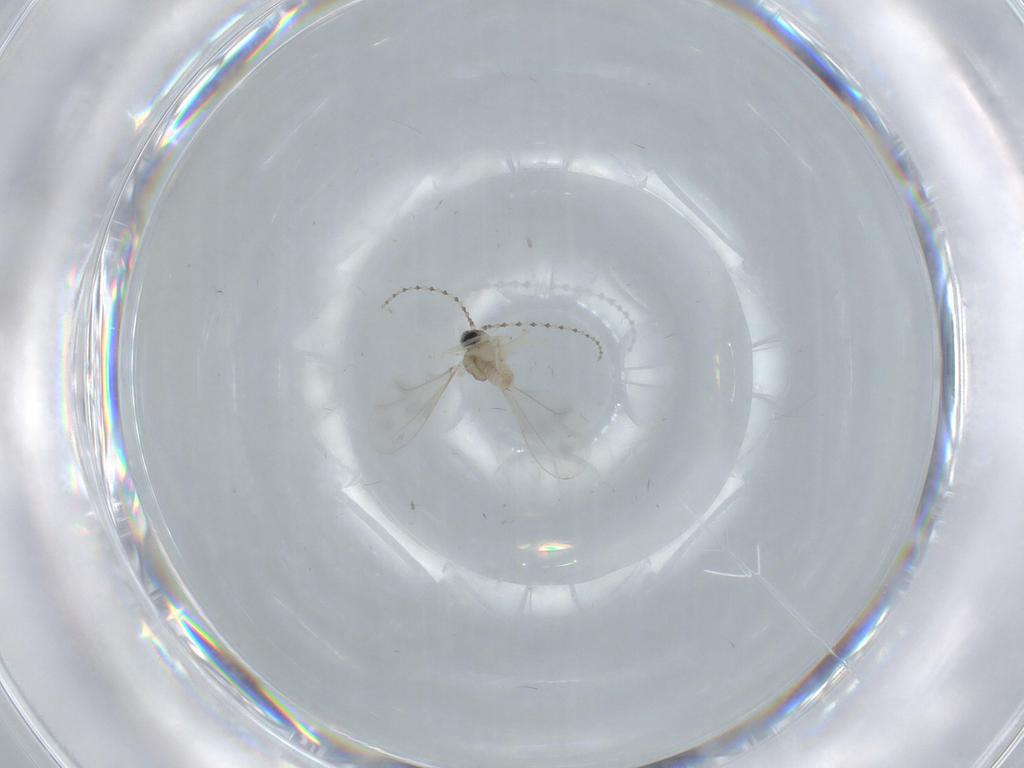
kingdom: Animalia
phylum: Arthropoda
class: Insecta
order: Diptera
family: Cecidomyiidae
